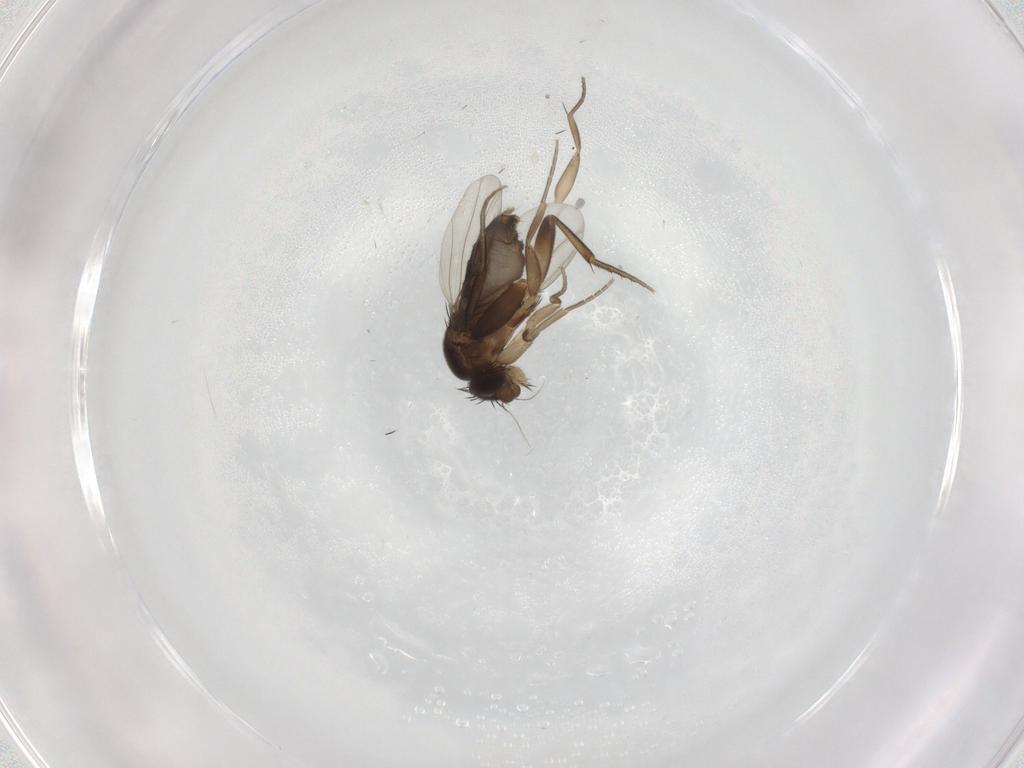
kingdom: Animalia
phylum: Arthropoda
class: Insecta
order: Diptera
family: Phoridae
